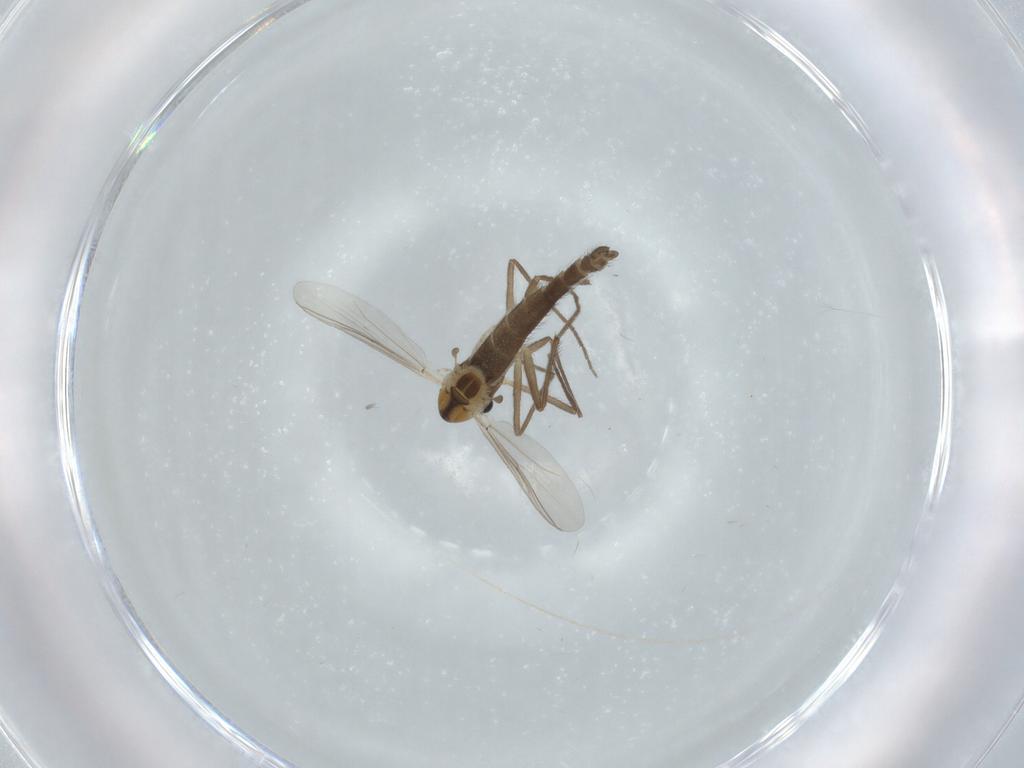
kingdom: Animalia
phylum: Arthropoda
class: Insecta
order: Diptera
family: Chironomidae
